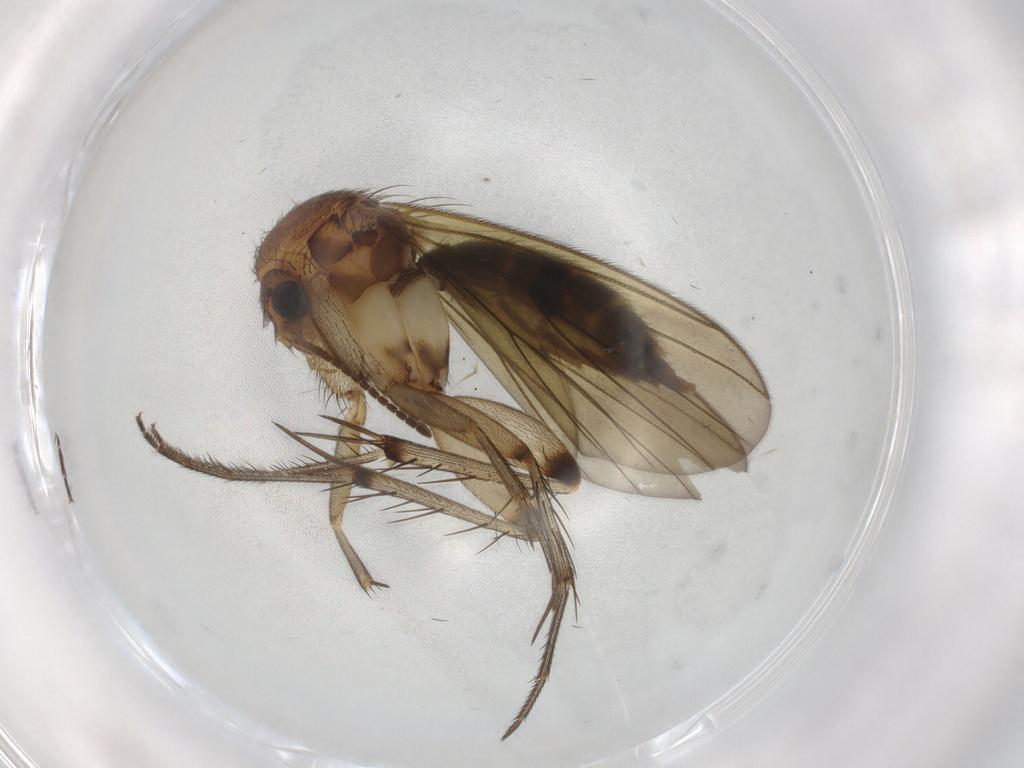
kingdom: Animalia
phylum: Arthropoda
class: Insecta
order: Diptera
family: Mycetophilidae
